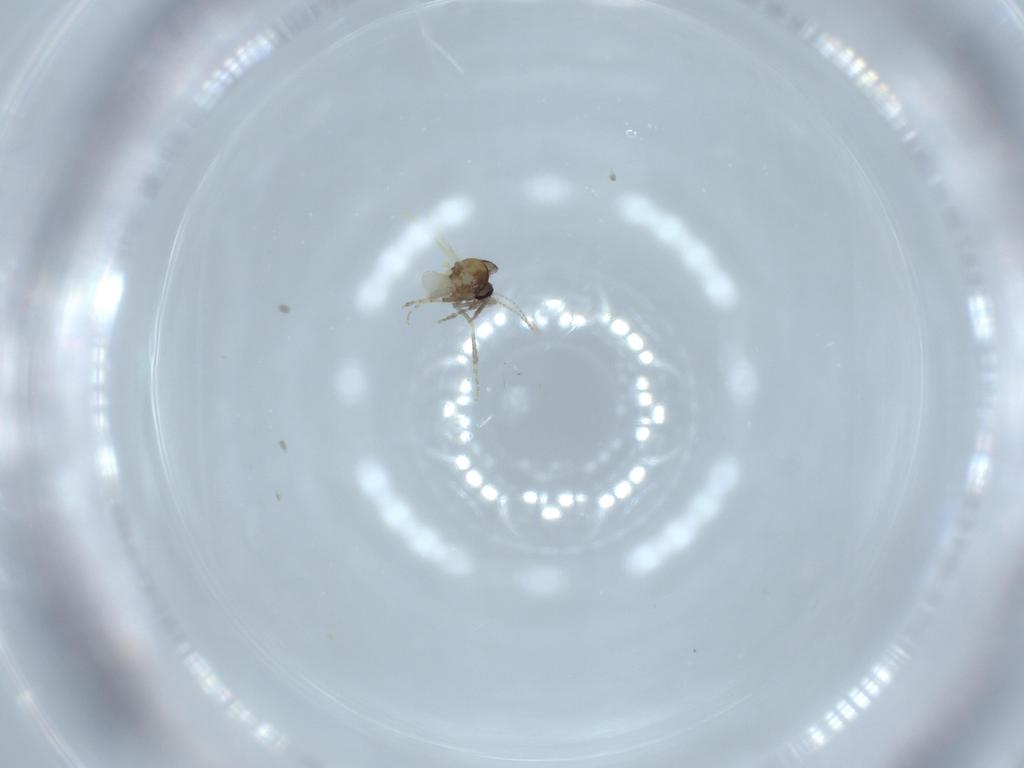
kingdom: Animalia
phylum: Arthropoda
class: Insecta
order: Diptera
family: Ceratopogonidae
